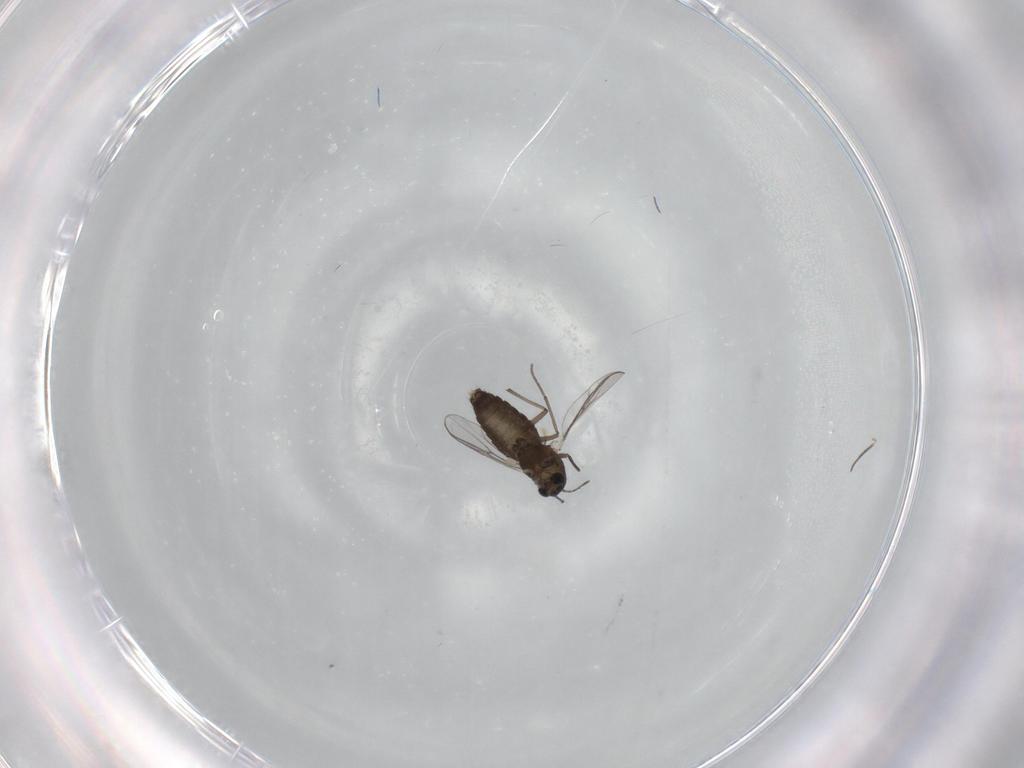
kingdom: Animalia
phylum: Arthropoda
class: Insecta
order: Diptera
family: Chironomidae
